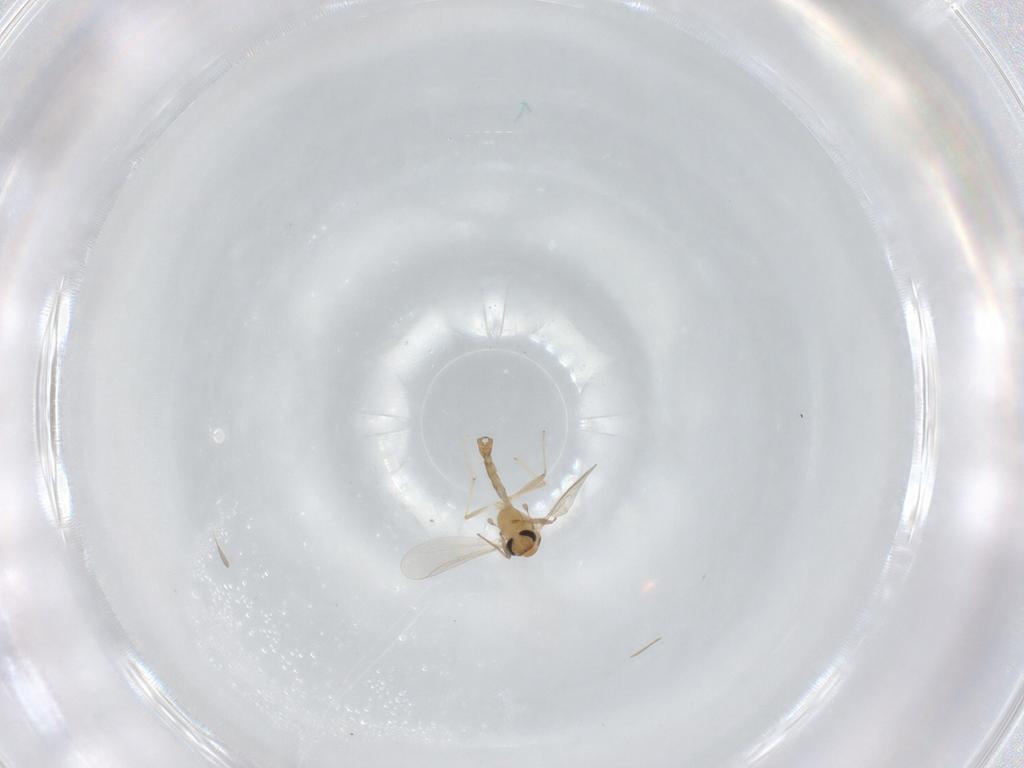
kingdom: Animalia
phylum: Arthropoda
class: Insecta
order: Diptera
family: Chironomidae
